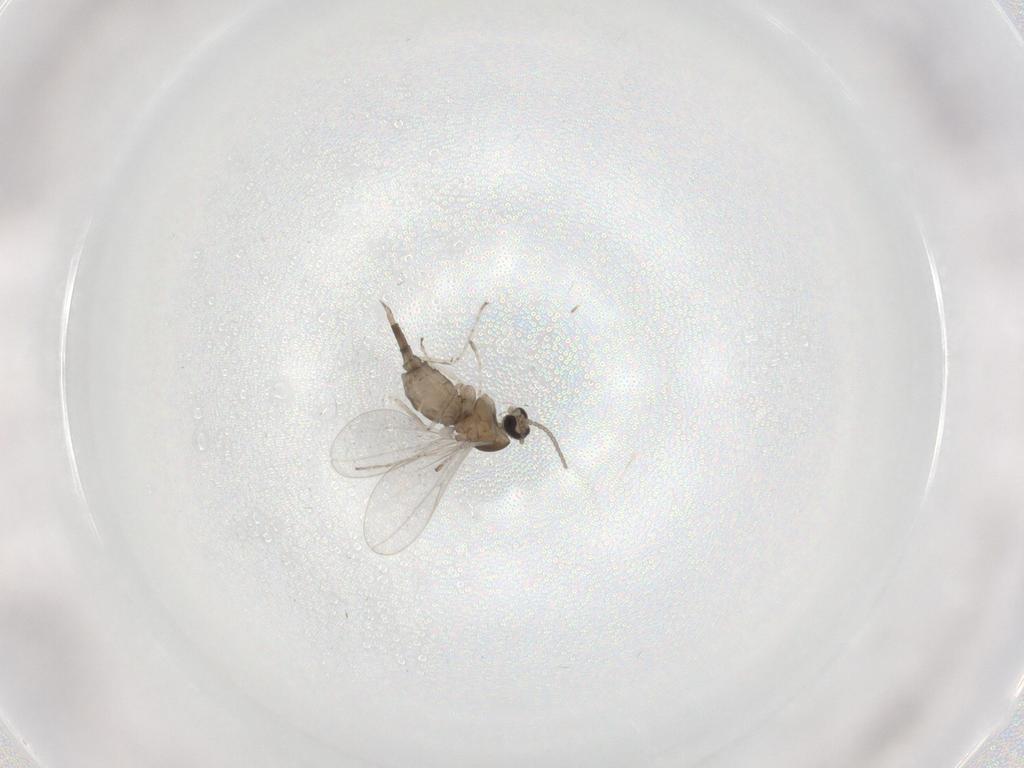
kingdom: Animalia
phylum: Arthropoda
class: Insecta
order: Diptera
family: Cecidomyiidae
